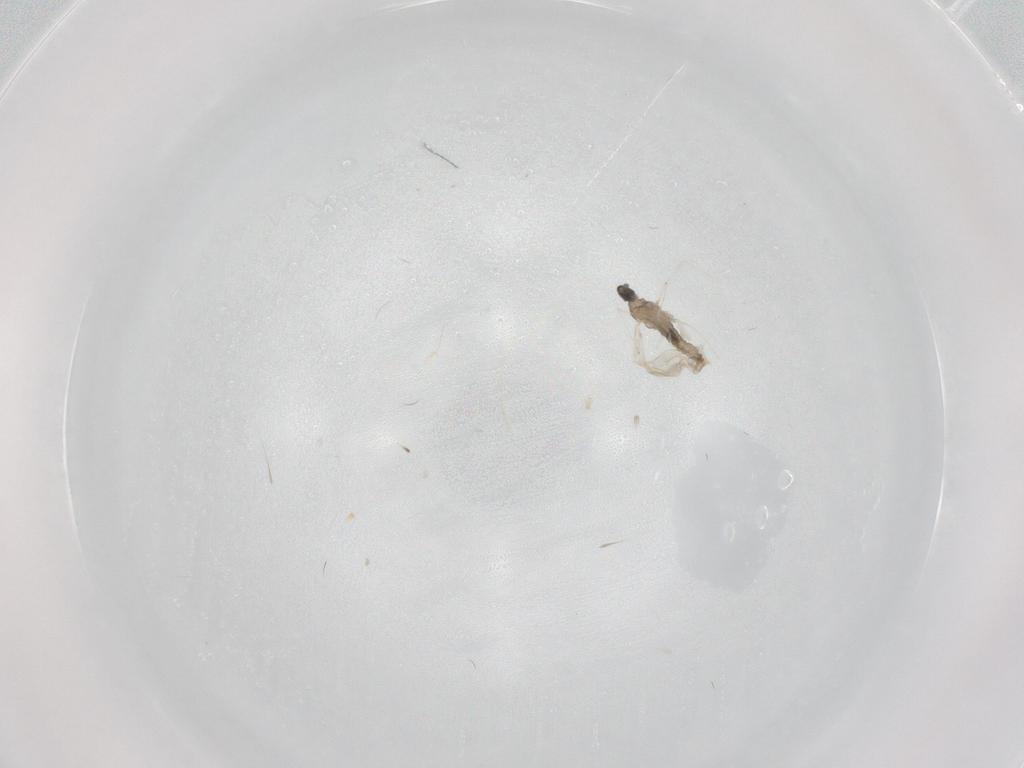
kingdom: Animalia
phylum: Arthropoda
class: Insecta
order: Diptera
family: Cecidomyiidae
